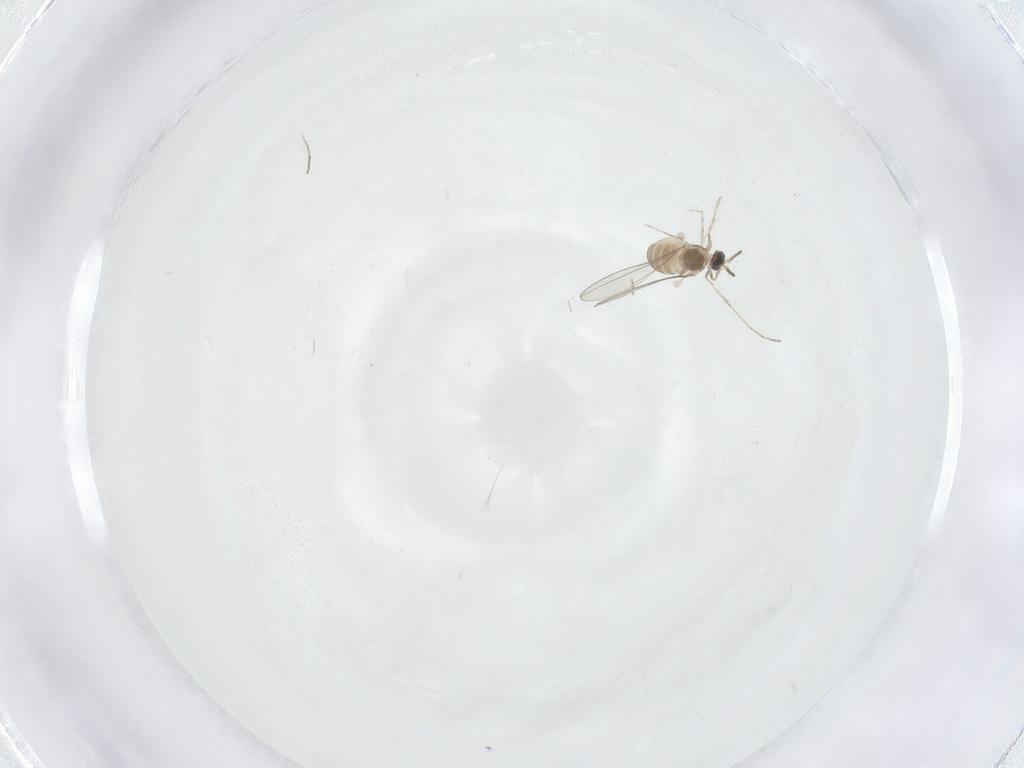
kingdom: Animalia
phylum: Arthropoda
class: Insecta
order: Diptera
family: Cecidomyiidae
